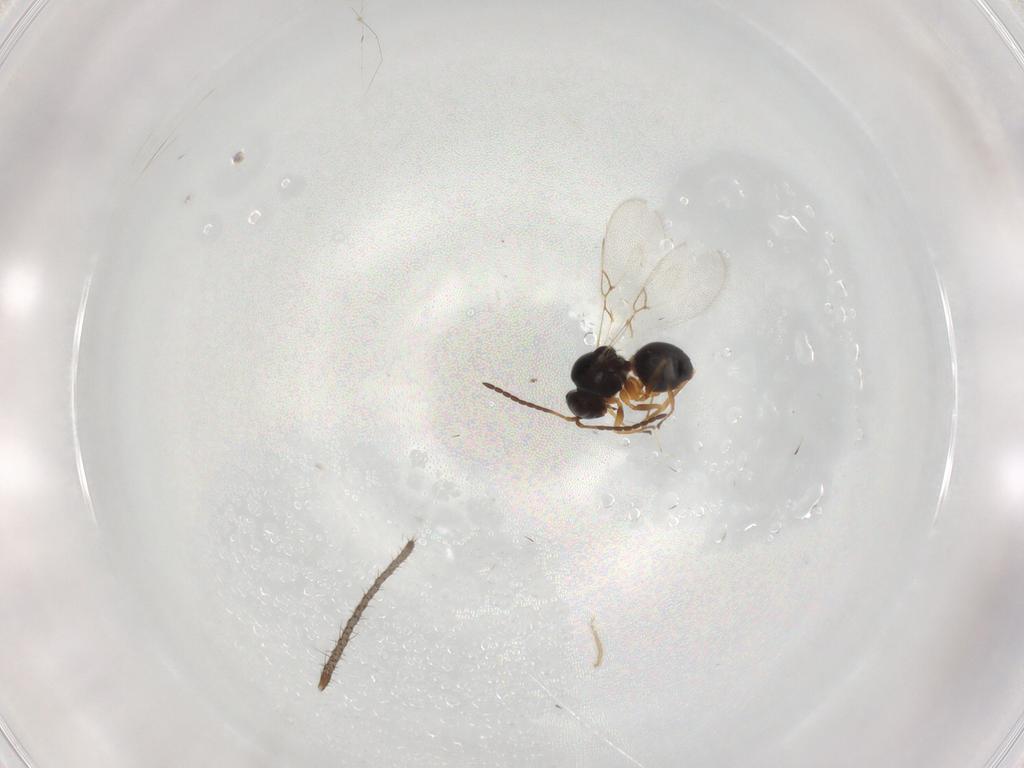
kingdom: Animalia
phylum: Arthropoda
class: Insecta
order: Hymenoptera
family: Figitidae
